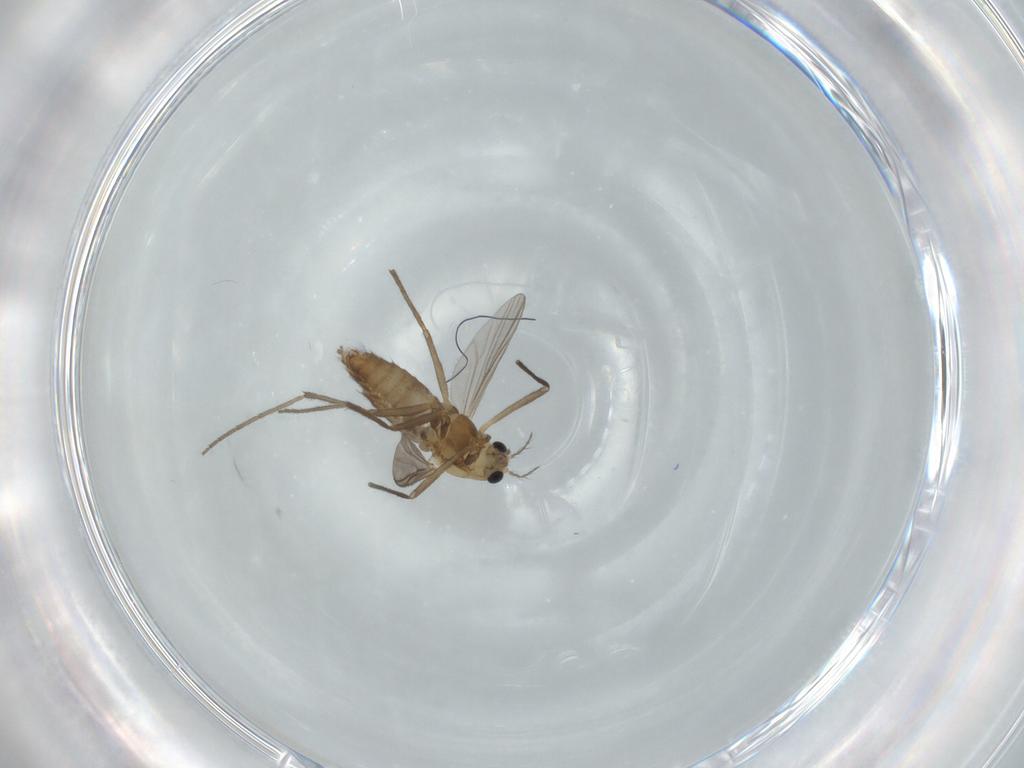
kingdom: Animalia
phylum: Arthropoda
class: Insecta
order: Diptera
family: Chironomidae
